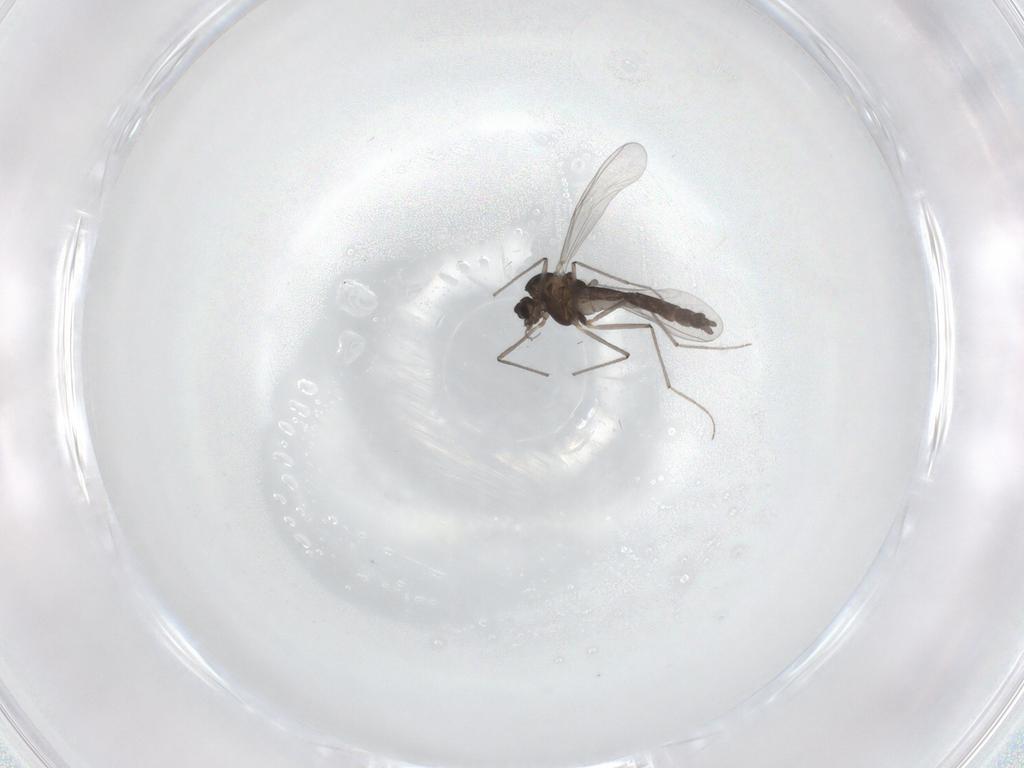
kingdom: Animalia
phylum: Arthropoda
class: Insecta
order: Diptera
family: Chironomidae
